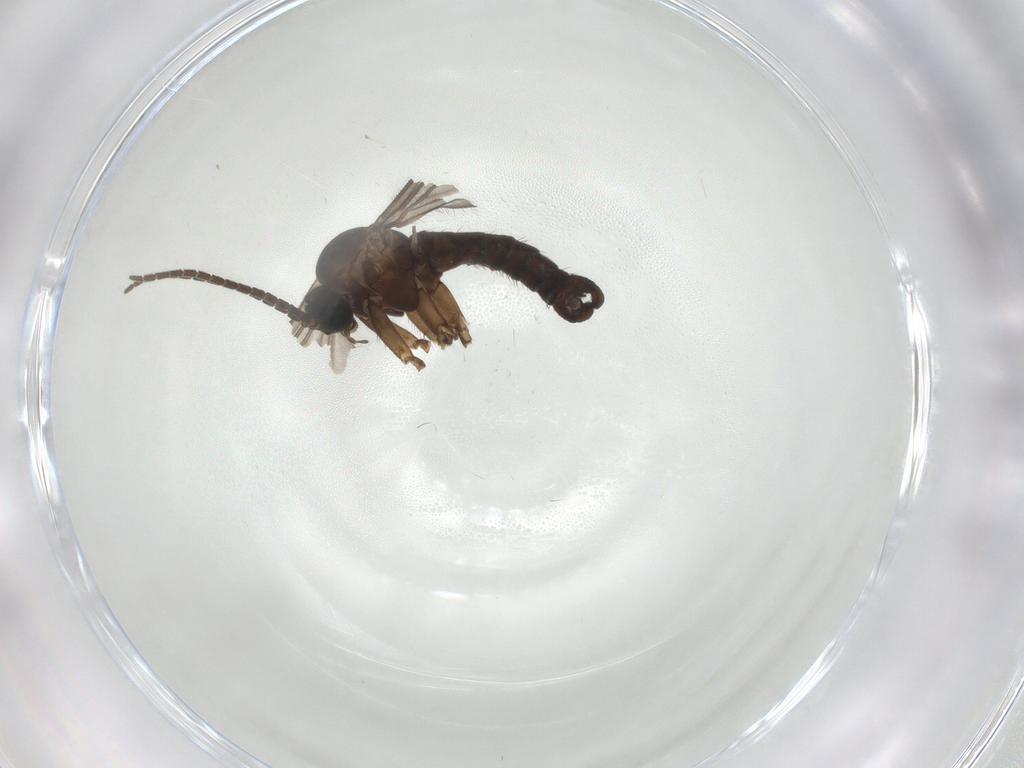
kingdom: Animalia
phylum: Arthropoda
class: Insecta
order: Diptera
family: Sciaridae
